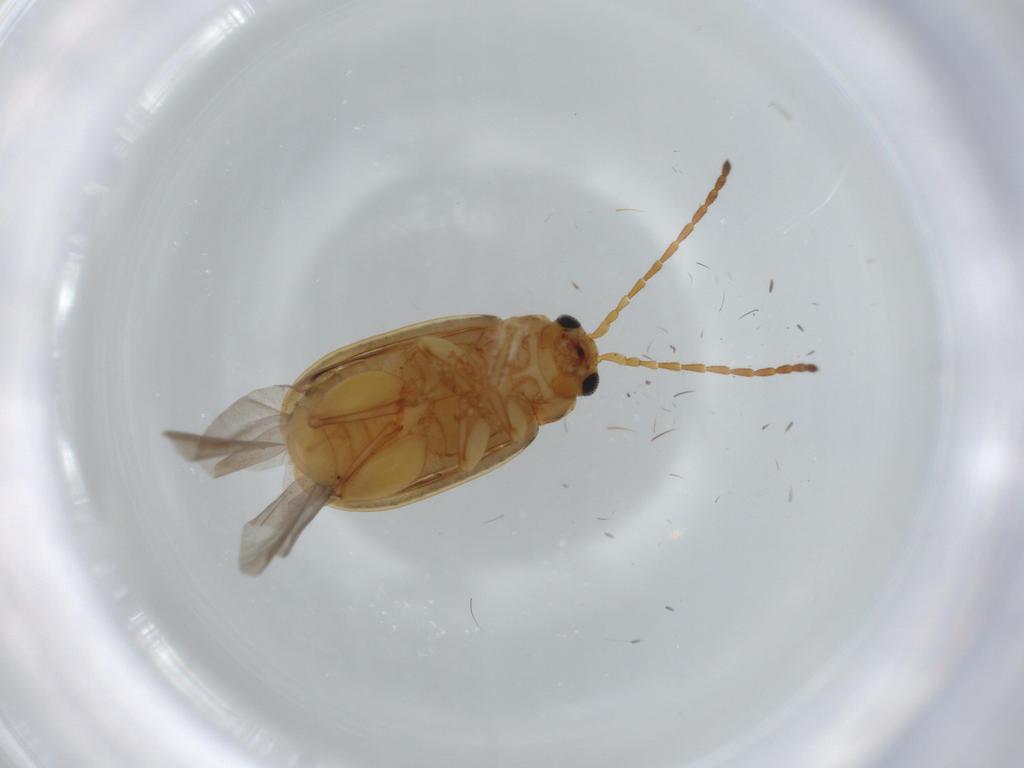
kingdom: Animalia
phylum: Arthropoda
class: Insecta
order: Coleoptera
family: Chrysomelidae
